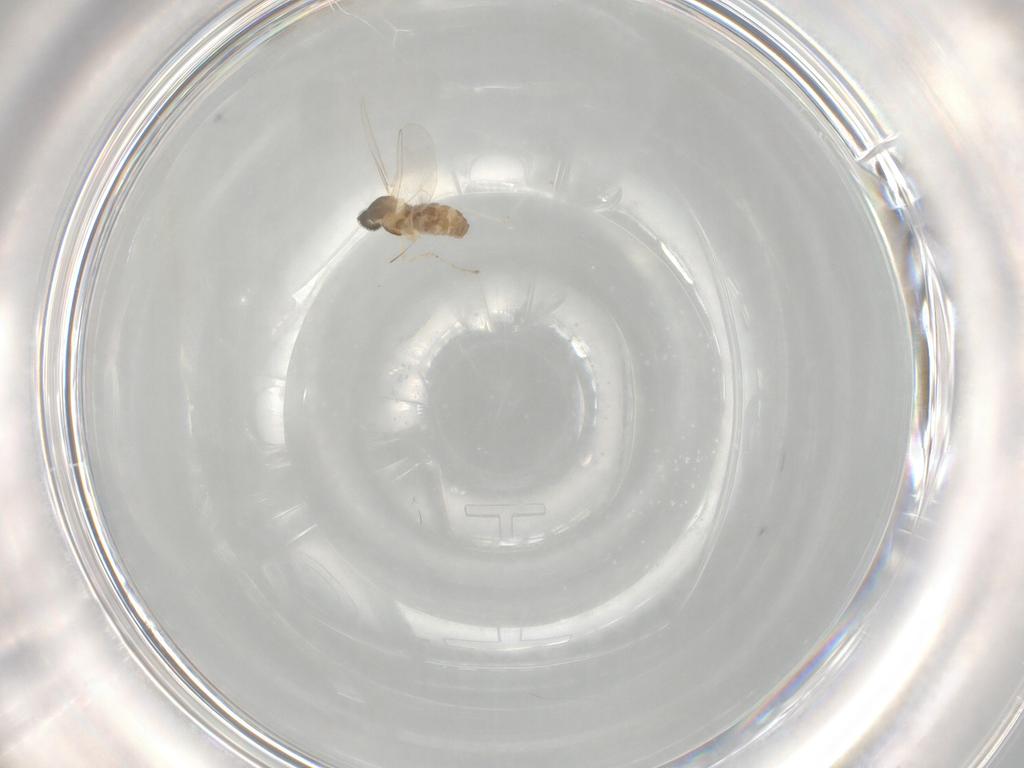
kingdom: Animalia
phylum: Arthropoda
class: Insecta
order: Diptera
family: Cecidomyiidae
